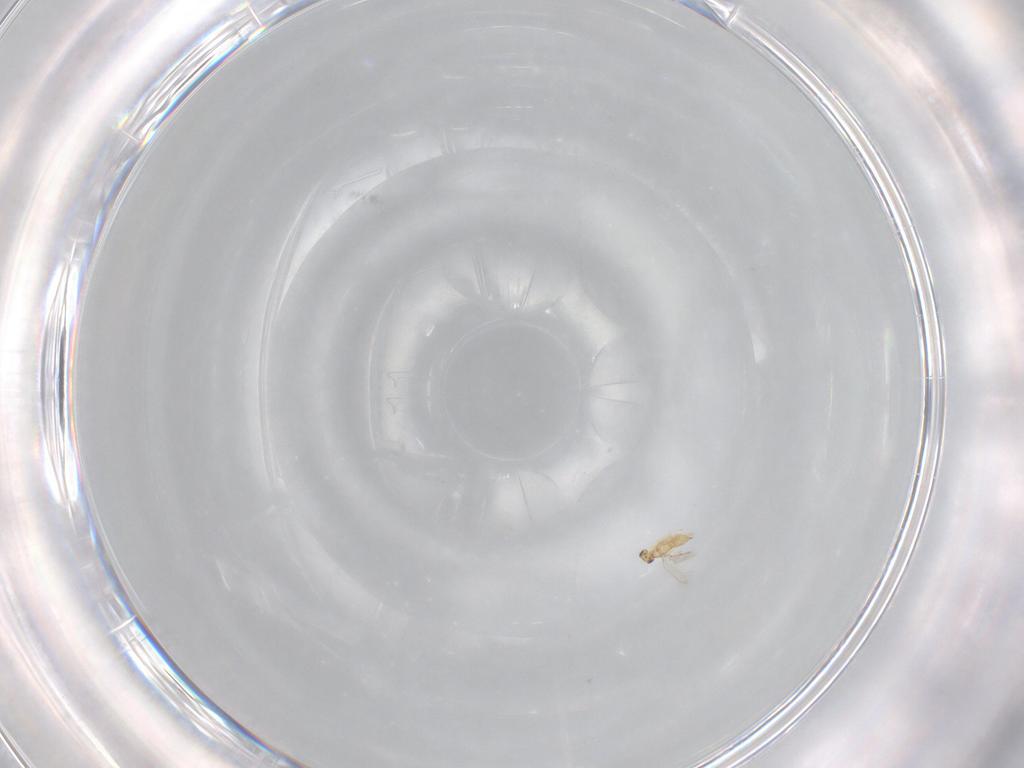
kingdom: Animalia
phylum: Arthropoda
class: Insecta
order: Hymenoptera
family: Mymaridae
